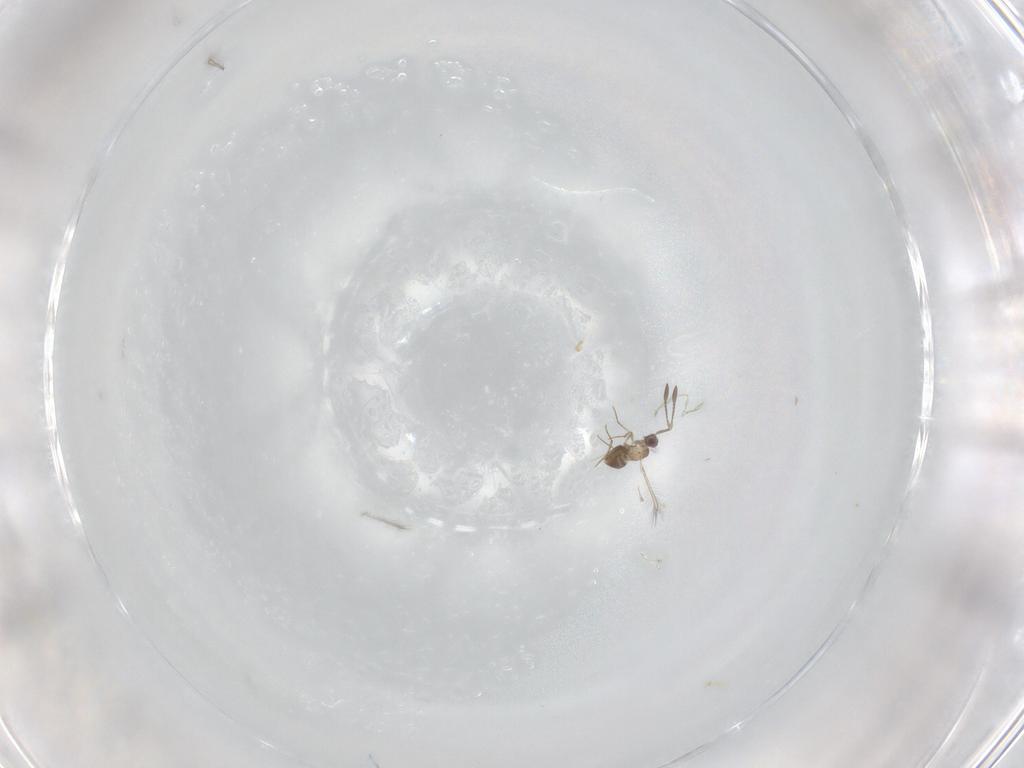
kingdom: Animalia
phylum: Arthropoda
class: Insecta
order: Hymenoptera
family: Mymaridae
